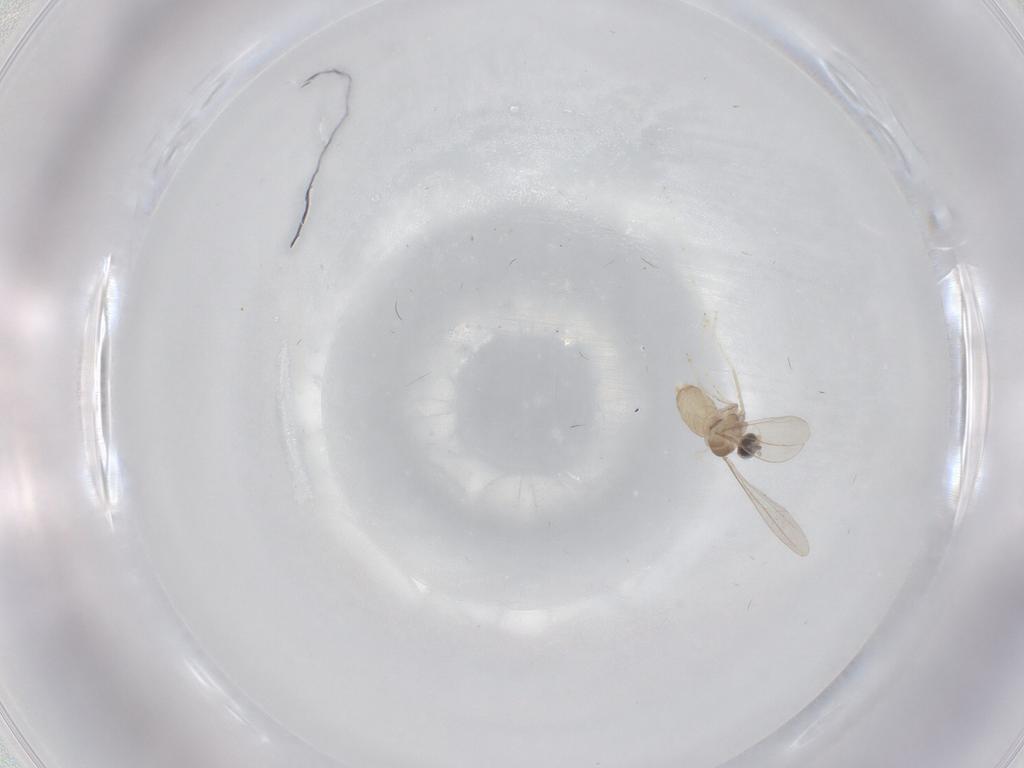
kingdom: Animalia
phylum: Arthropoda
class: Insecta
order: Diptera
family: Cecidomyiidae
